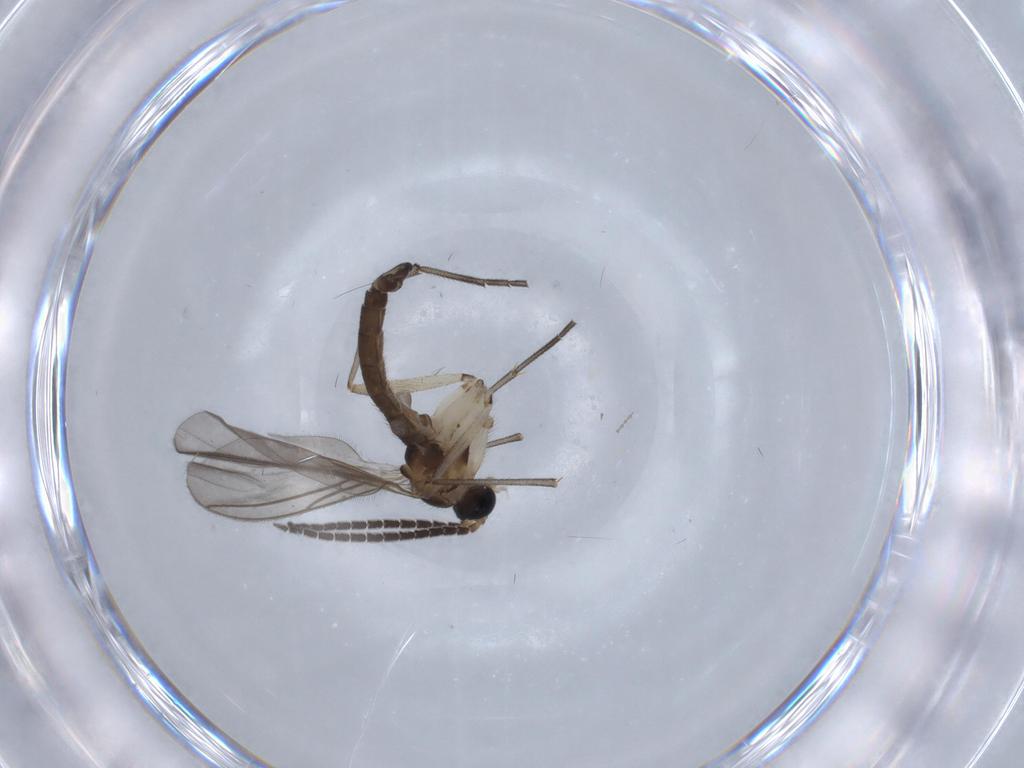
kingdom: Animalia
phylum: Arthropoda
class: Insecta
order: Diptera
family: Sciaridae
